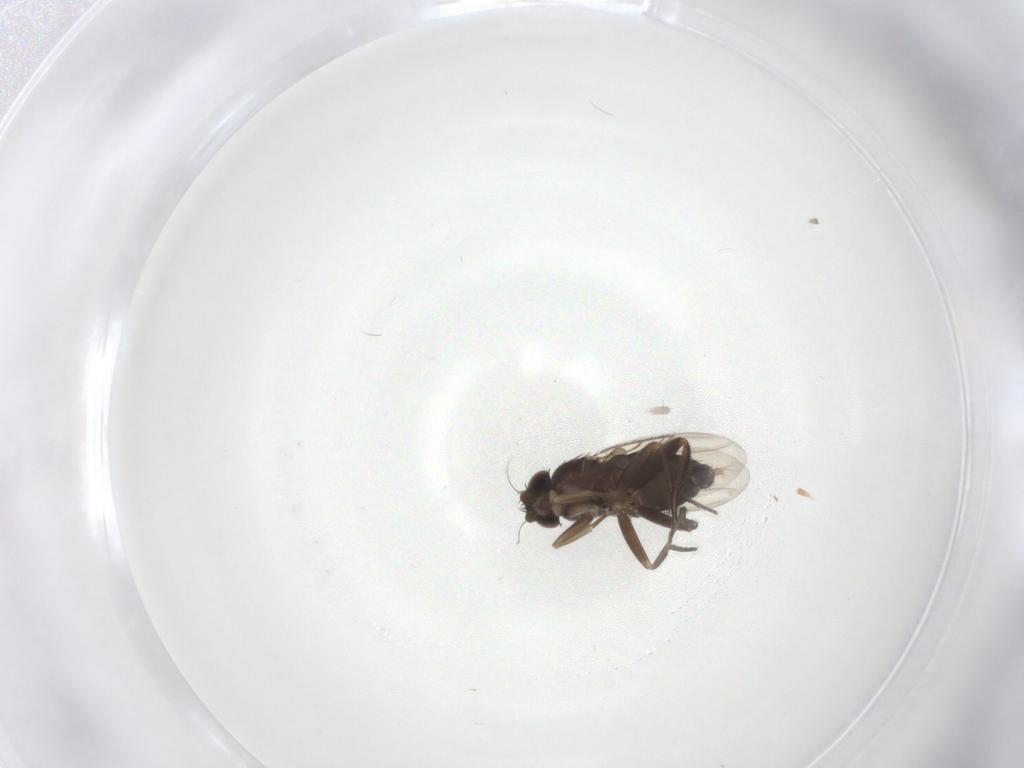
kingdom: Animalia
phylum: Arthropoda
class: Insecta
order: Diptera
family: Phoridae
